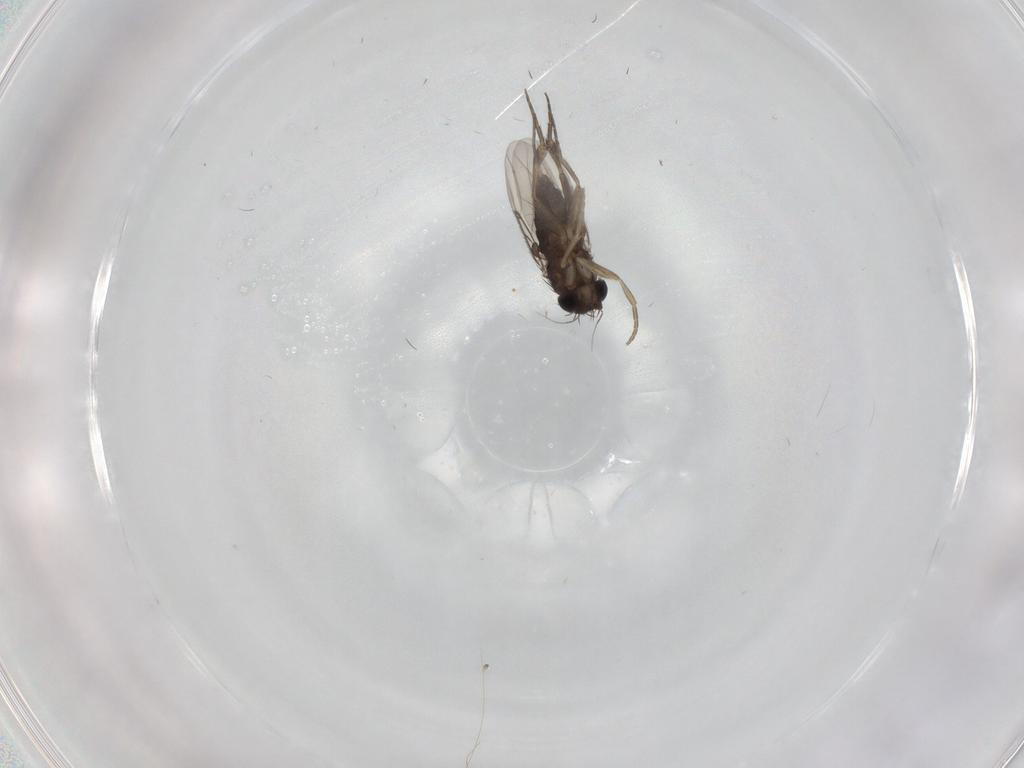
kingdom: Animalia
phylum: Arthropoda
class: Insecta
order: Diptera
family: Phoridae
